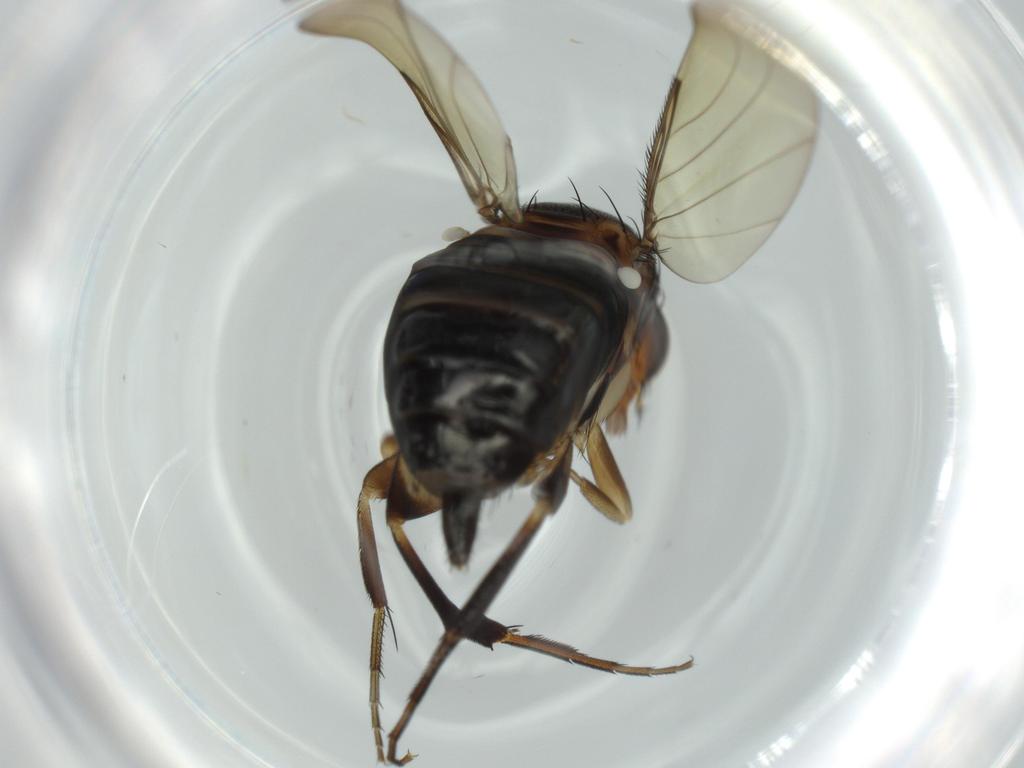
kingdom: Animalia
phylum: Arthropoda
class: Insecta
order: Diptera
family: Phoridae
